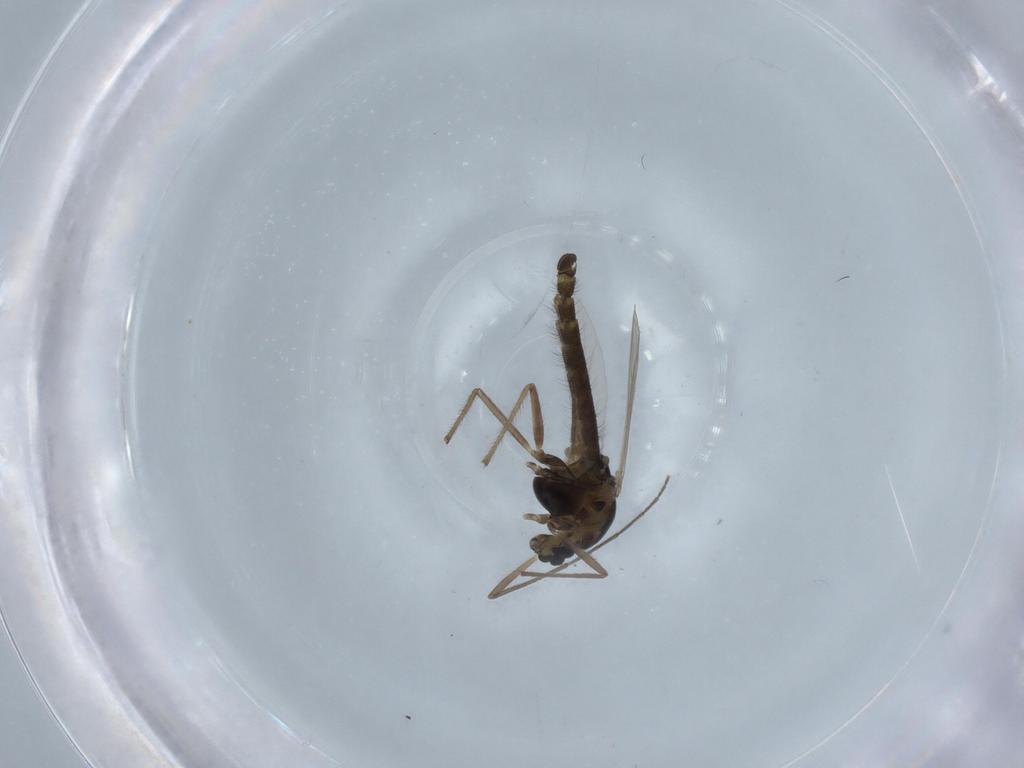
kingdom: Animalia
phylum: Arthropoda
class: Insecta
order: Diptera
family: Chironomidae
